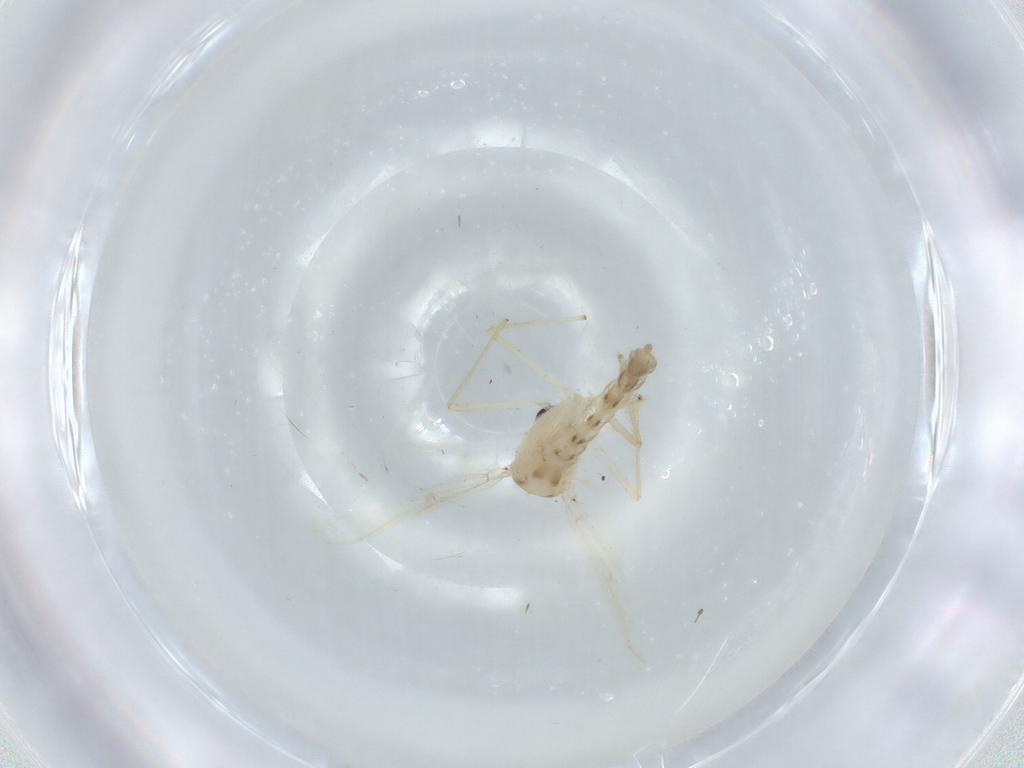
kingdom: Animalia
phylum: Arthropoda
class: Insecta
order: Diptera
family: Chironomidae
